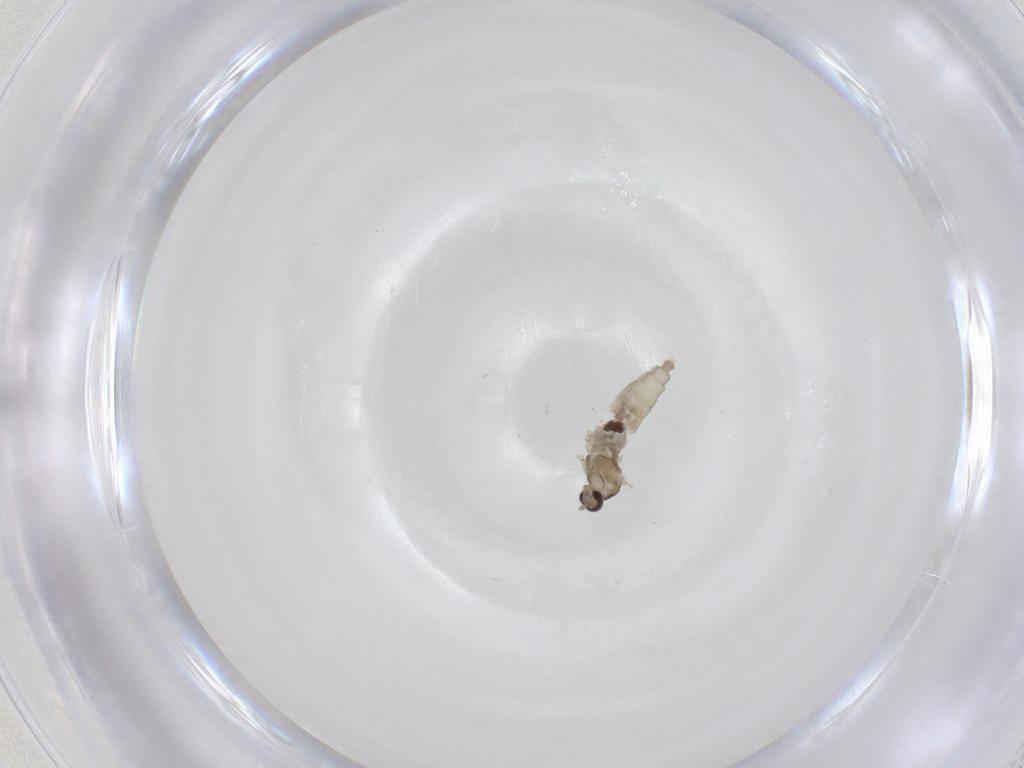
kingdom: Animalia
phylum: Arthropoda
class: Insecta
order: Diptera
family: Cecidomyiidae
